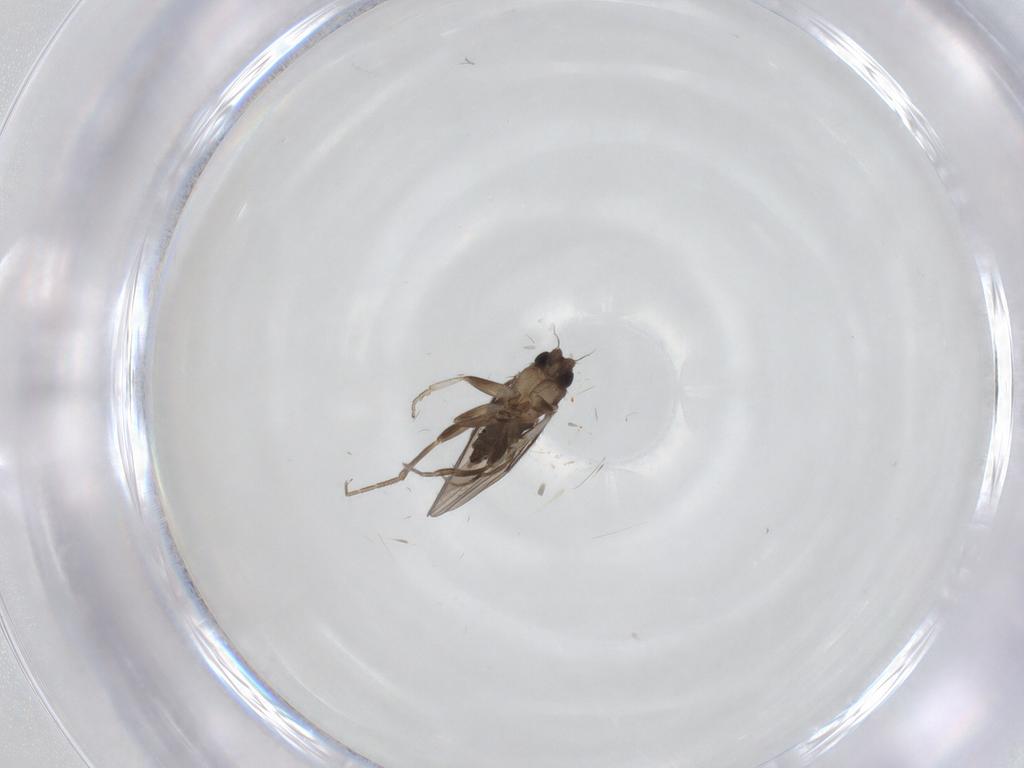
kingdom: Animalia
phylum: Arthropoda
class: Insecta
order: Diptera
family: Phoridae
